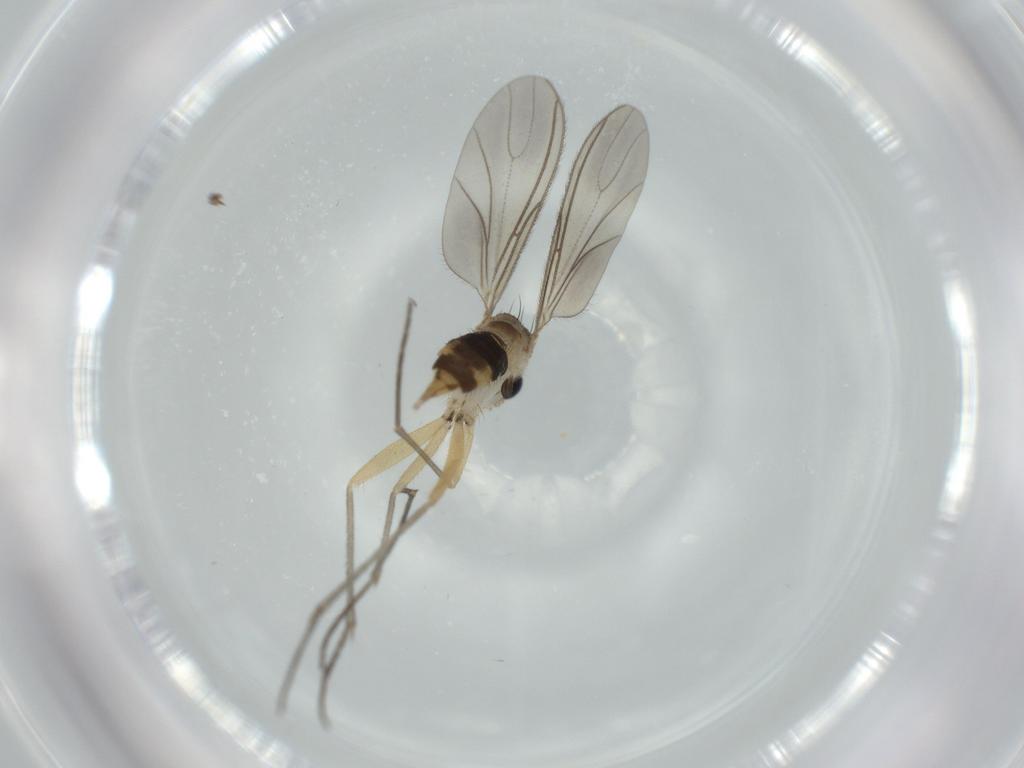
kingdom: Animalia
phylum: Arthropoda
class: Insecta
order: Diptera
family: Sciaridae
